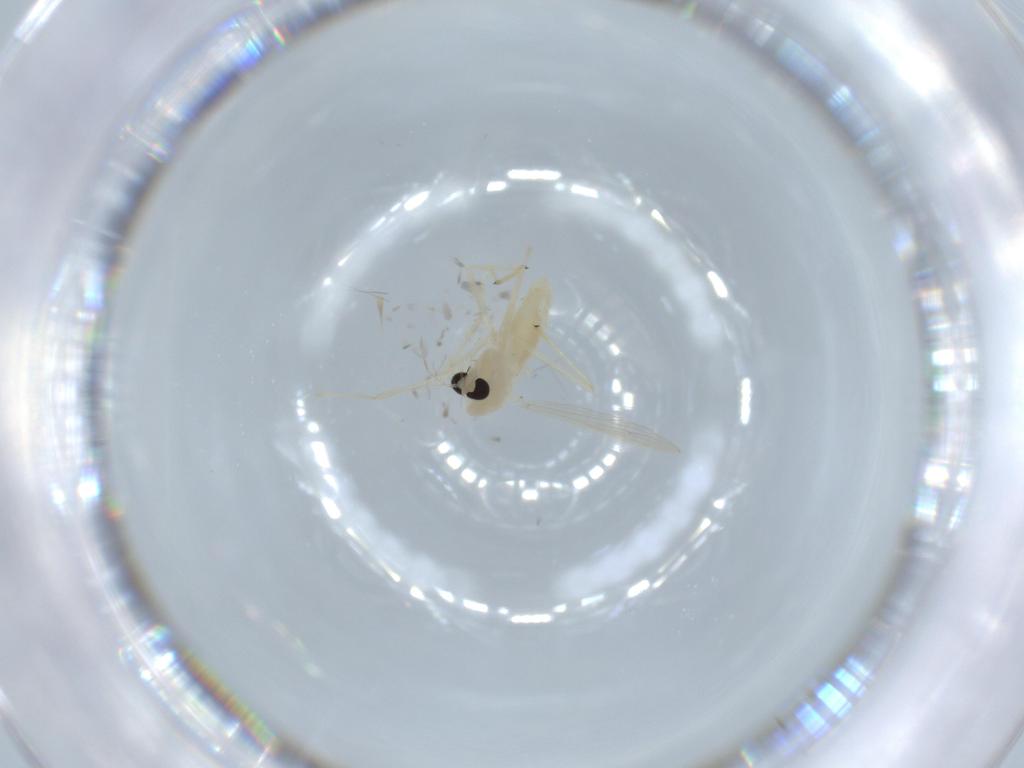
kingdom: Animalia
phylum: Arthropoda
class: Insecta
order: Diptera
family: Chironomidae
